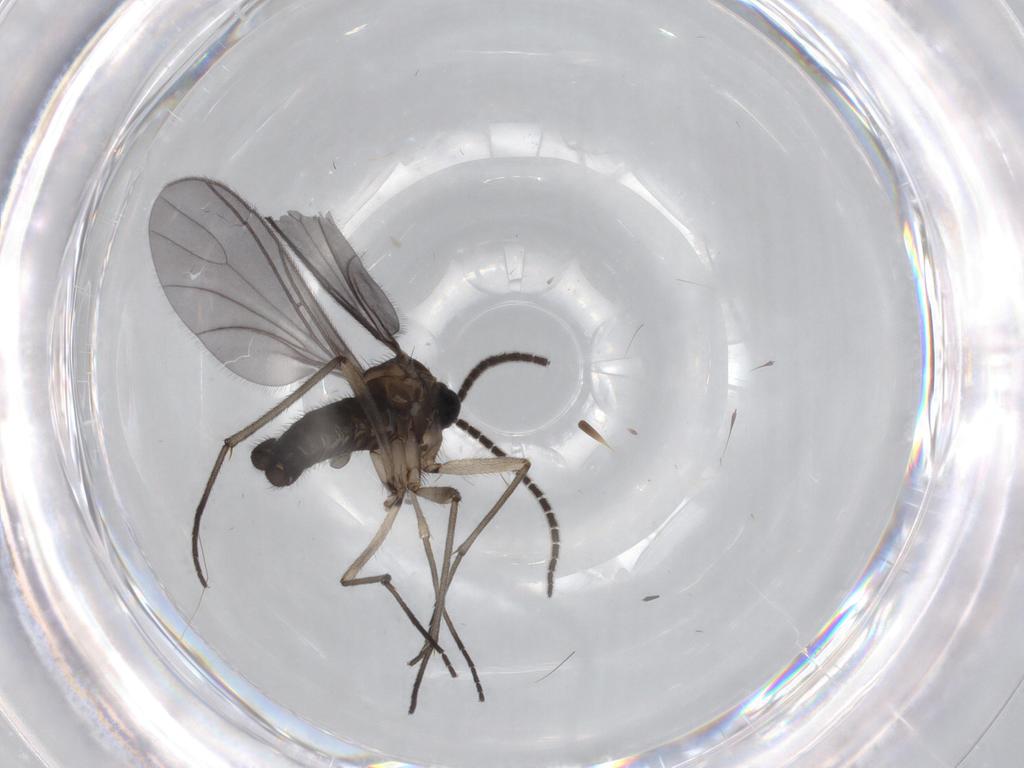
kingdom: Animalia
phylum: Arthropoda
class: Insecta
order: Diptera
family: Sciaridae
